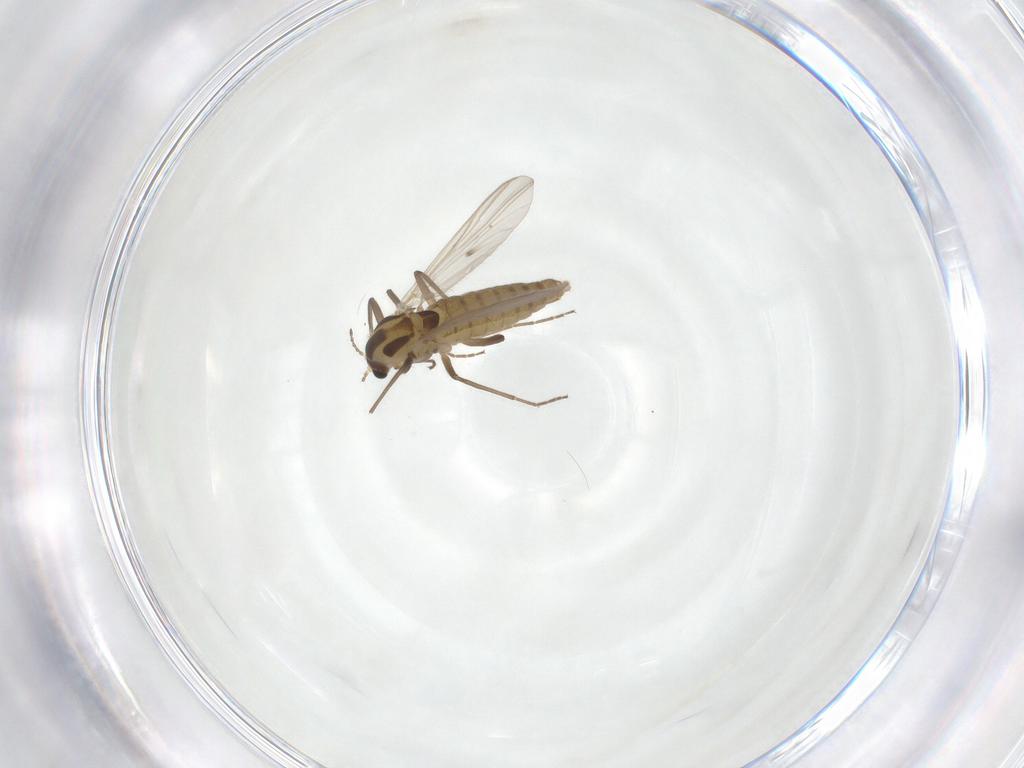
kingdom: Animalia
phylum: Arthropoda
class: Insecta
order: Diptera
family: Chironomidae
